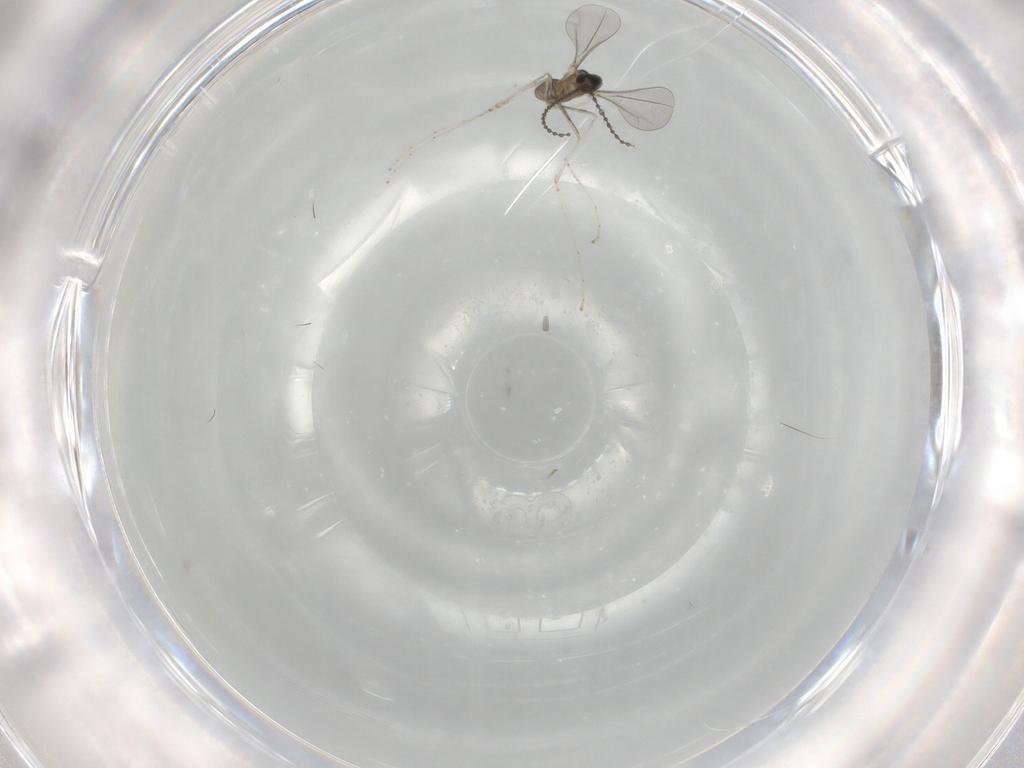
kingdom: Animalia
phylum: Arthropoda
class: Insecta
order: Diptera
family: Cecidomyiidae
